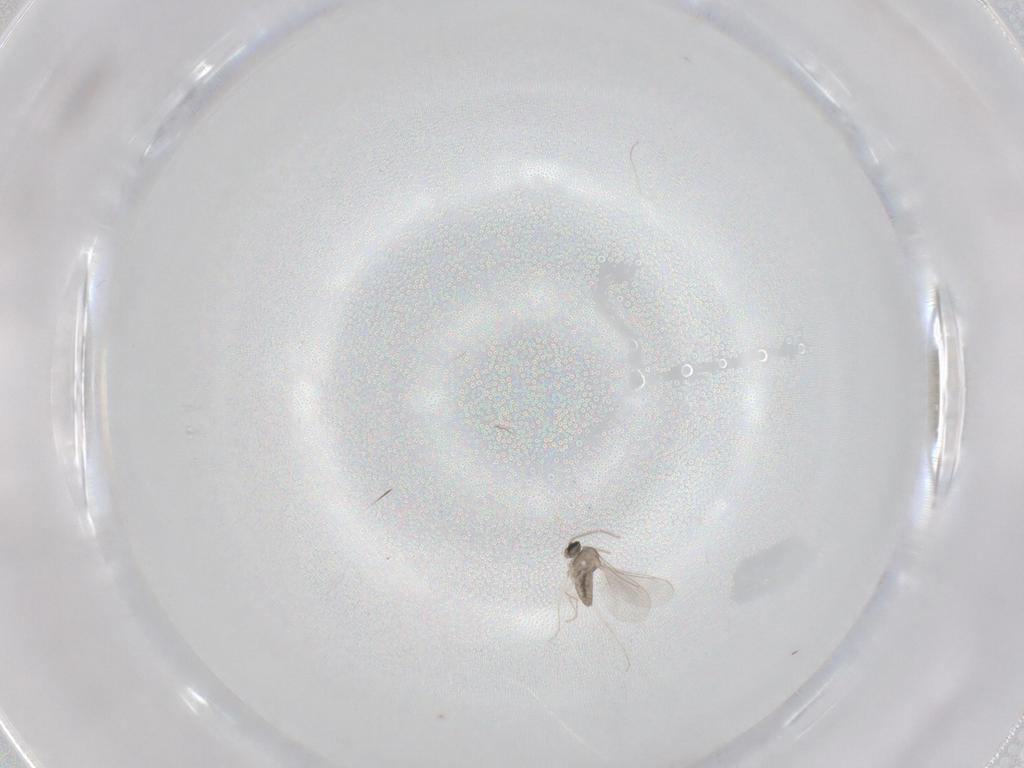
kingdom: Animalia
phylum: Arthropoda
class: Insecta
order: Diptera
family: Cecidomyiidae
